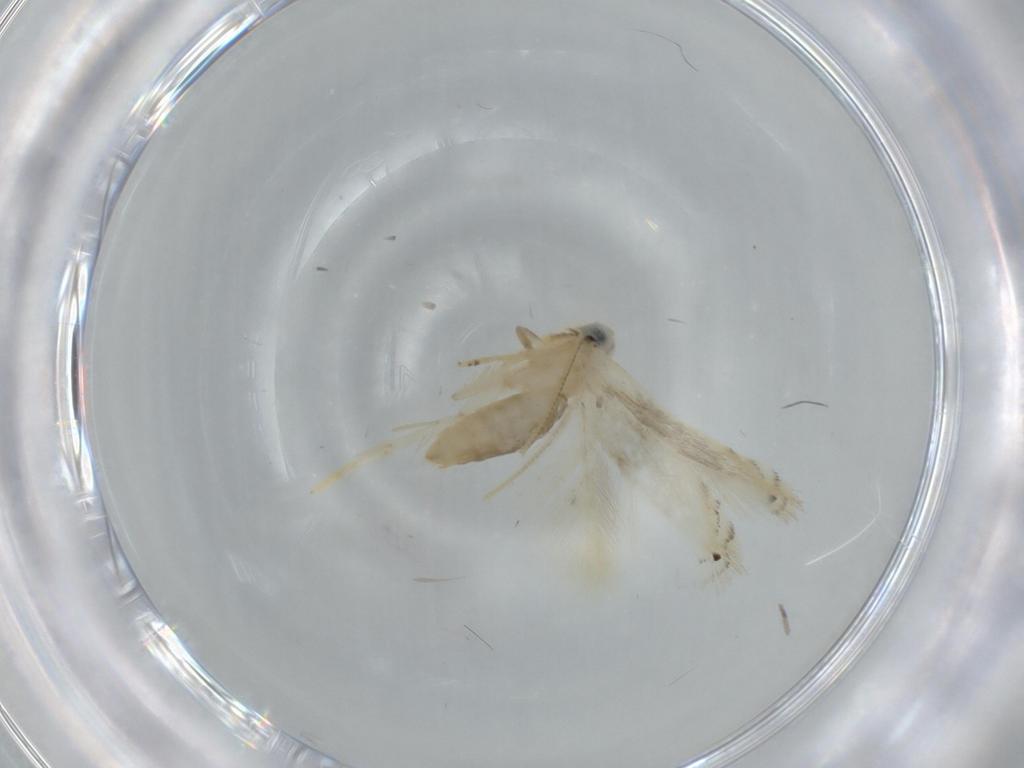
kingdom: Animalia
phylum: Arthropoda
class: Insecta
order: Lepidoptera
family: Opostegidae
